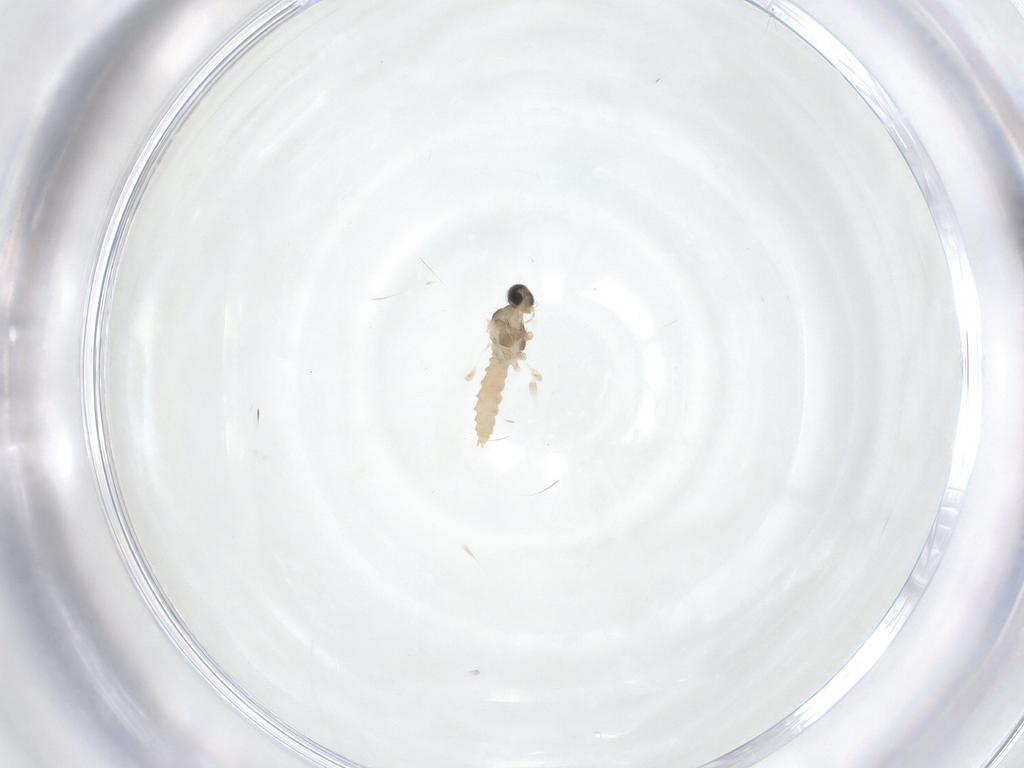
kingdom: Animalia
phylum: Arthropoda
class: Insecta
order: Diptera
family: Cecidomyiidae
